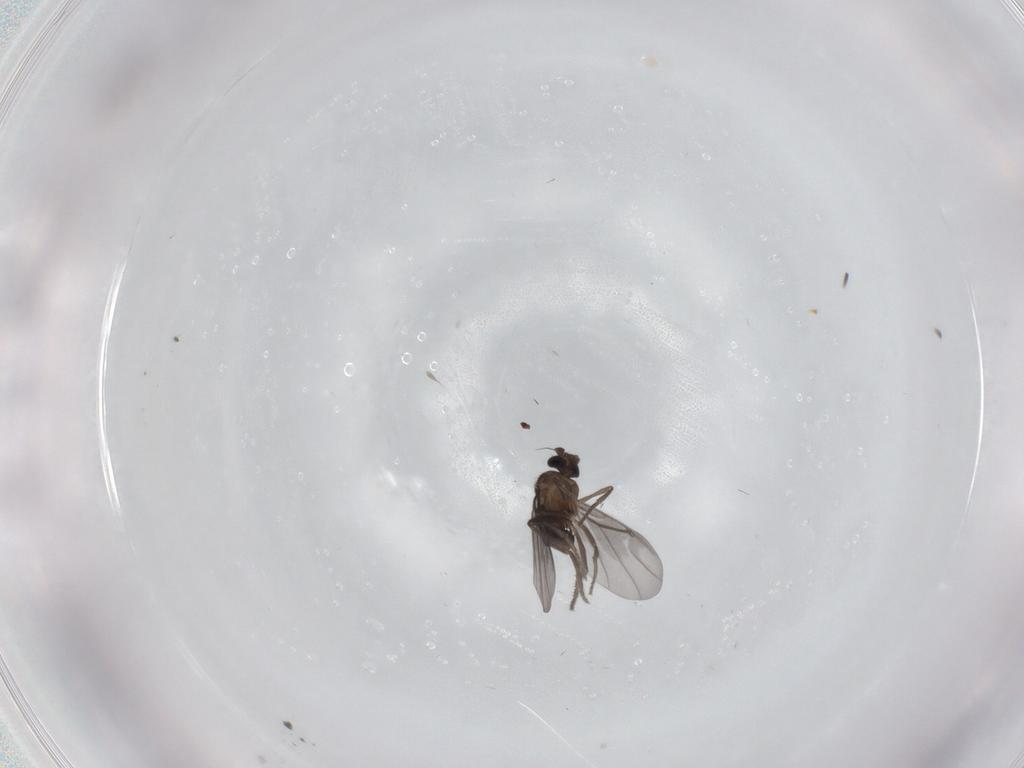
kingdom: Animalia
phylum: Arthropoda
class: Insecta
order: Diptera
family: Phoridae
